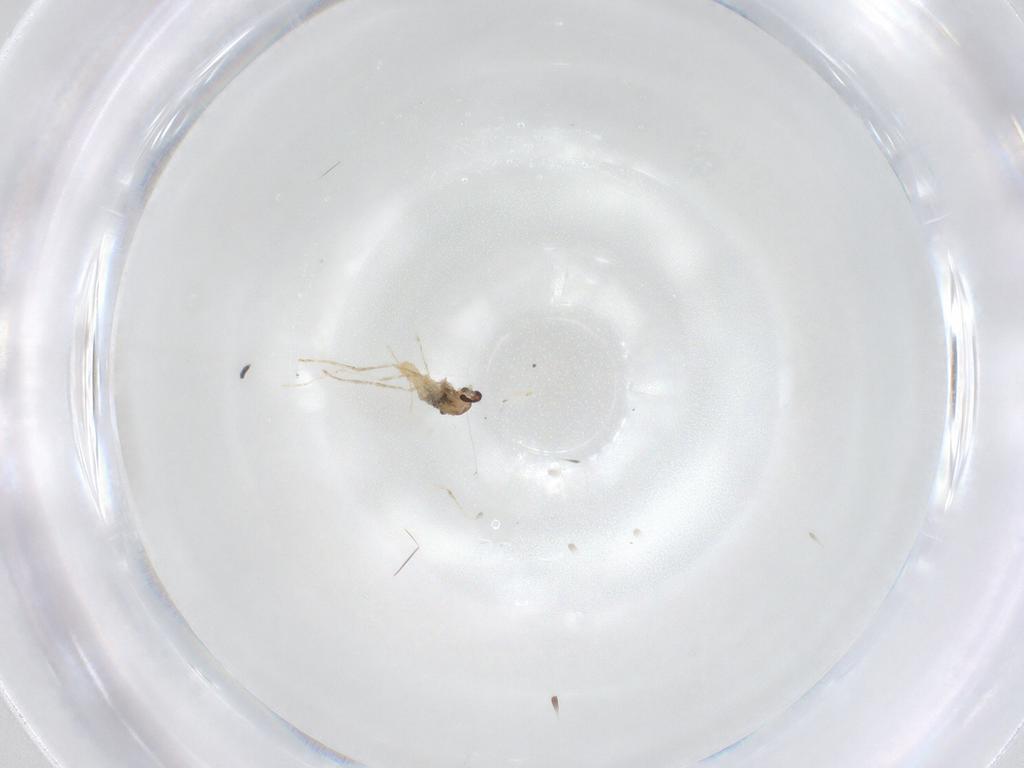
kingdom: Animalia
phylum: Arthropoda
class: Insecta
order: Diptera
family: Cecidomyiidae
